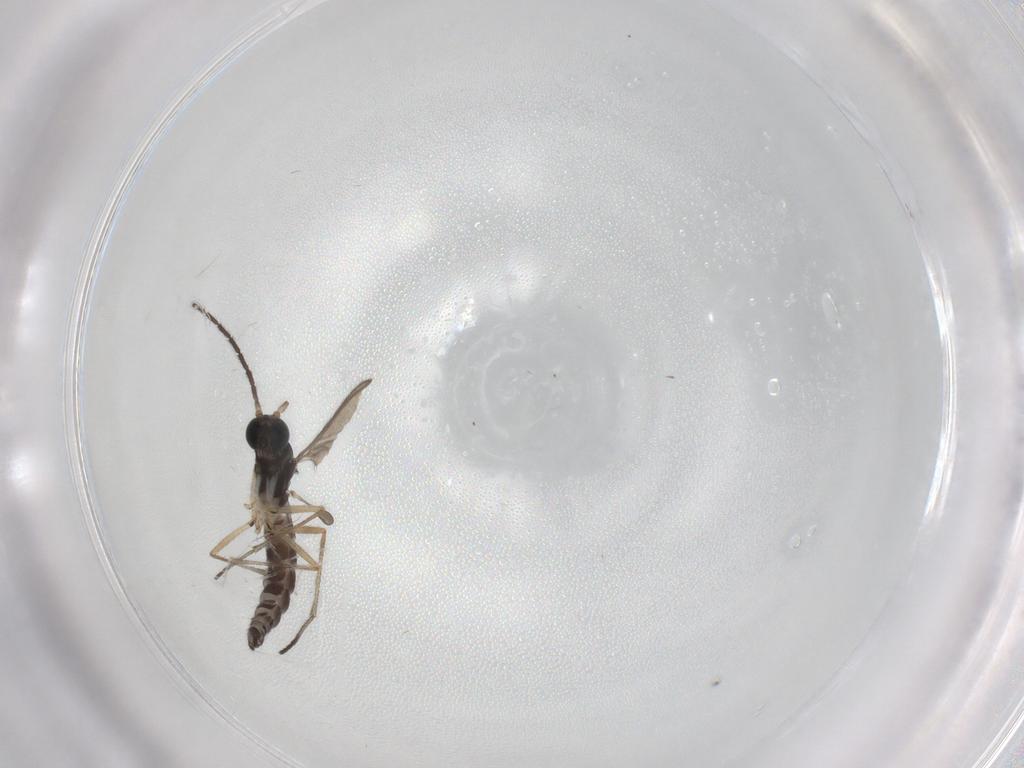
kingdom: Animalia
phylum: Arthropoda
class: Insecta
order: Diptera
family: Sciaridae
